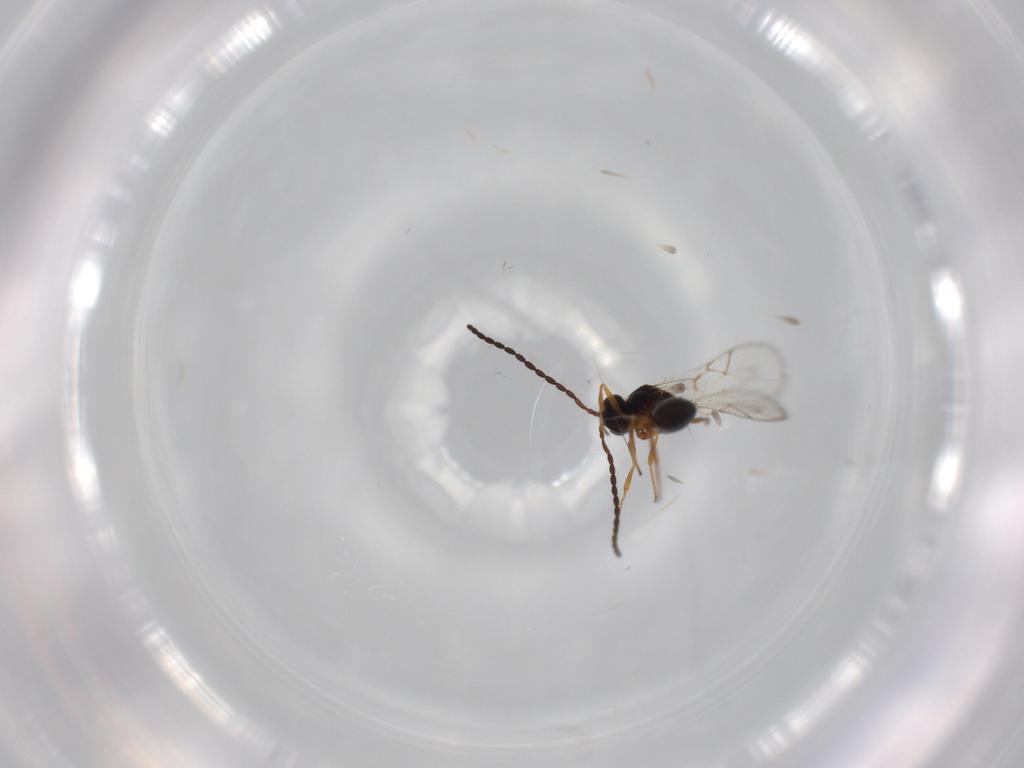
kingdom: Animalia
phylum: Arthropoda
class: Insecta
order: Hymenoptera
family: Figitidae
